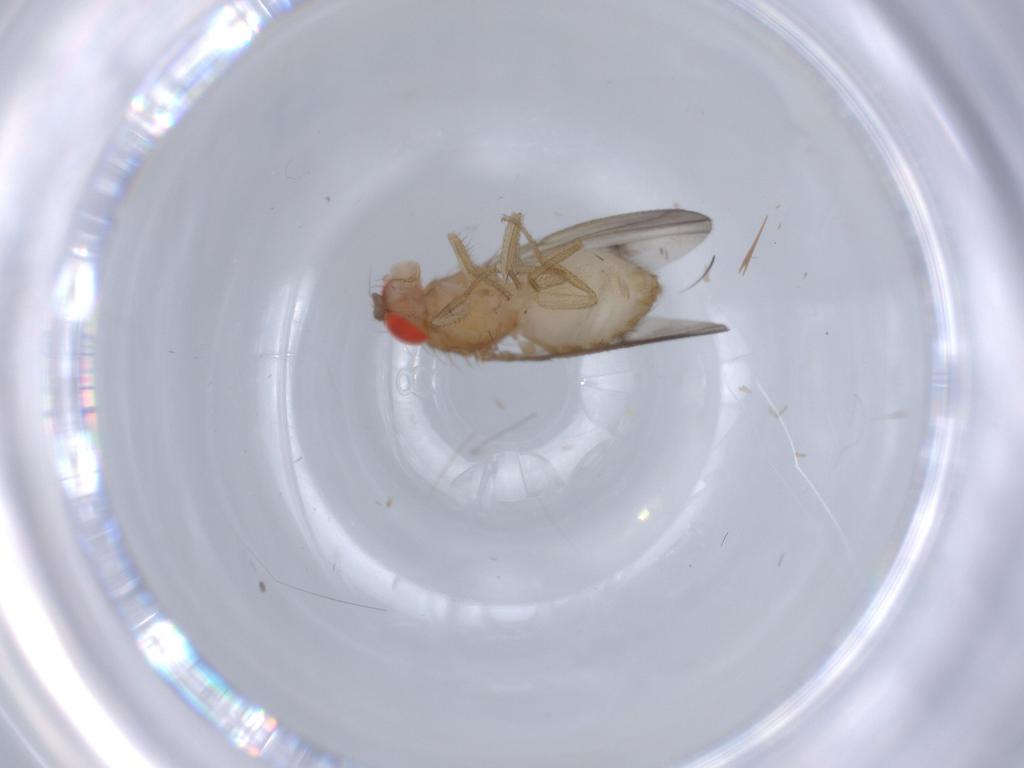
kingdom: Animalia
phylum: Arthropoda
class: Insecta
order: Diptera
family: Drosophilidae
